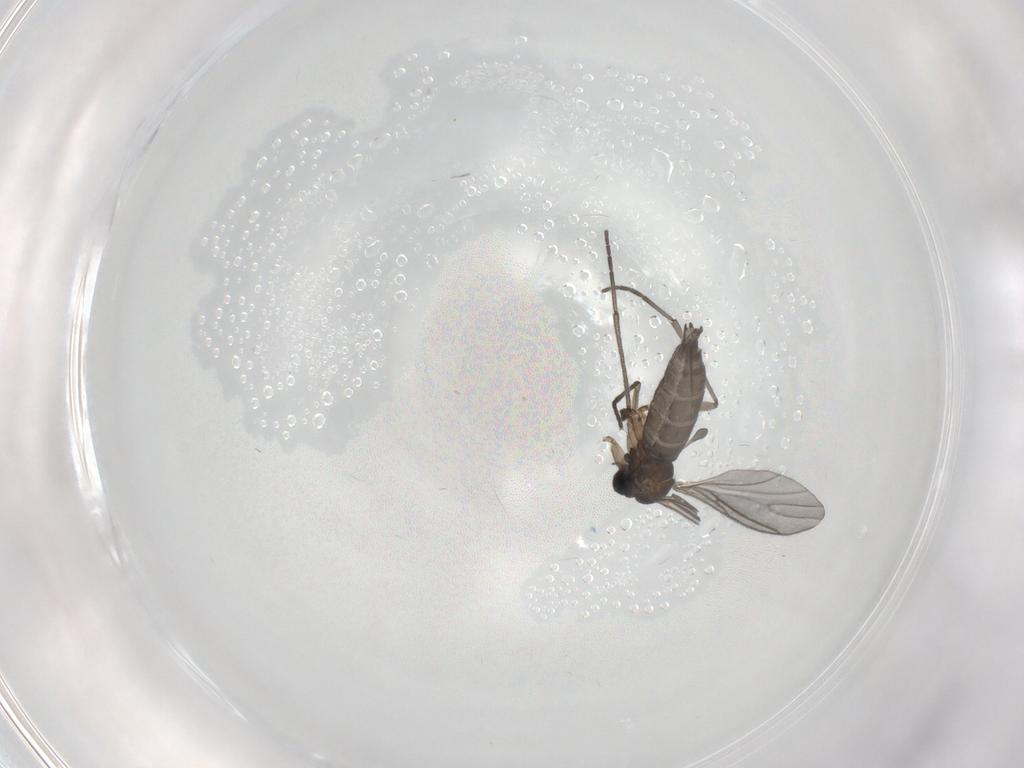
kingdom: Animalia
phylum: Arthropoda
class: Insecta
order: Diptera
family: Sciaridae
